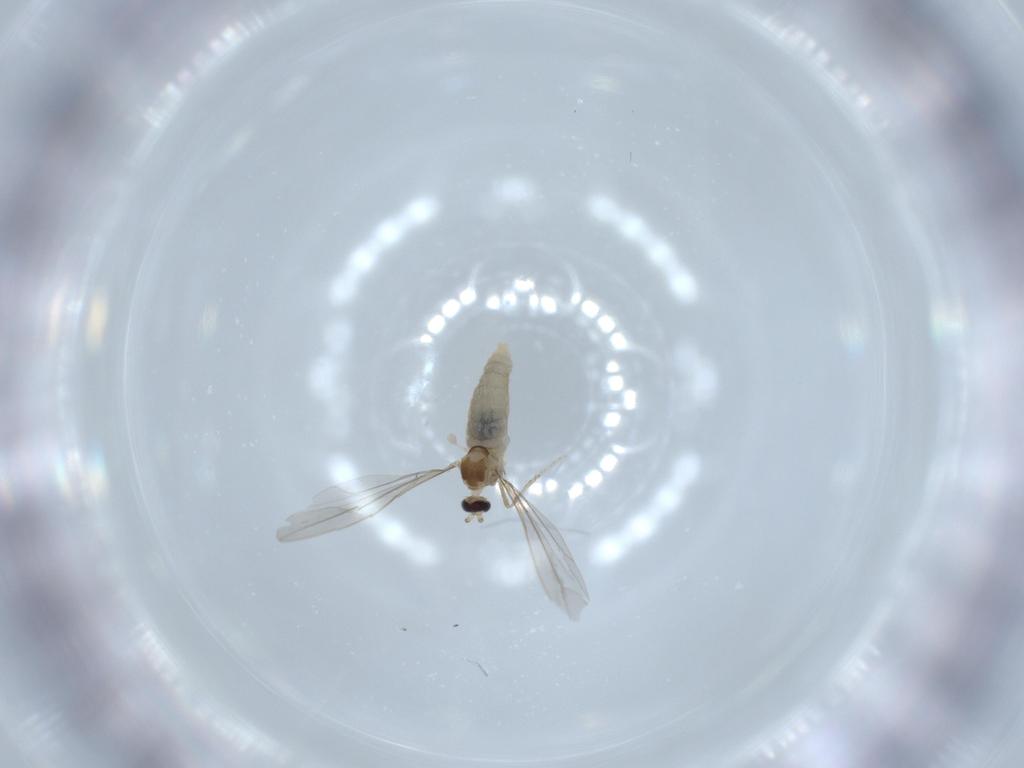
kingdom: Animalia
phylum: Arthropoda
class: Insecta
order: Diptera
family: Cecidomyiidae
